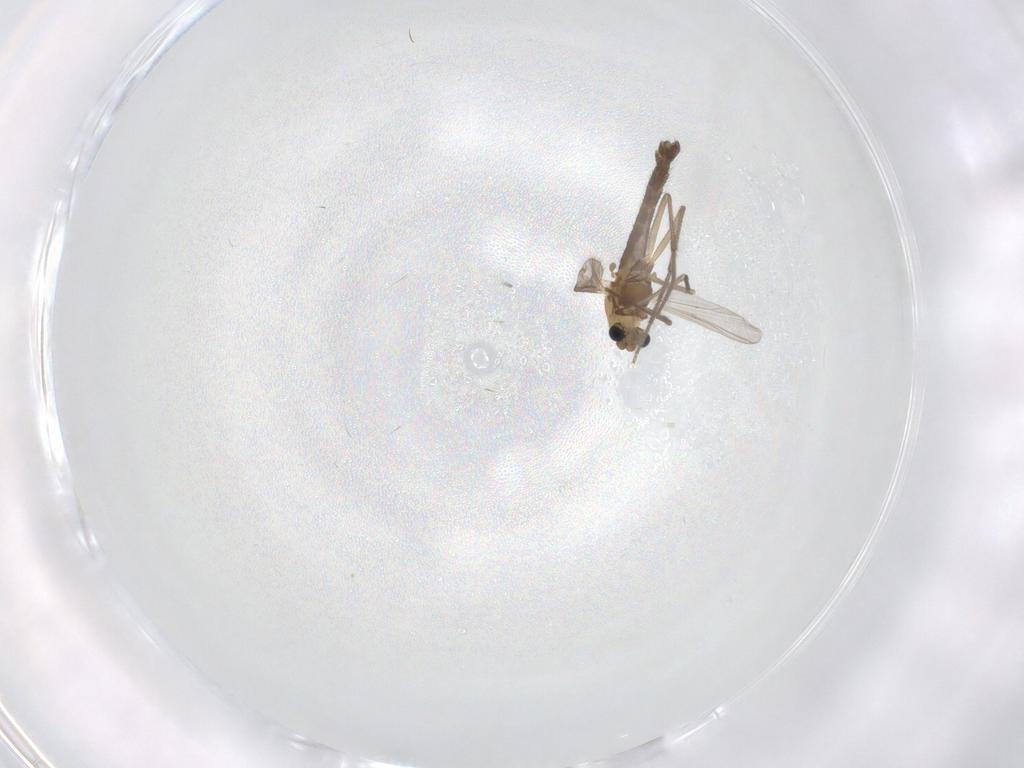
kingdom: Animalia
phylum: Arthropoda
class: Insecta
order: Diptera
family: Chironomidae
